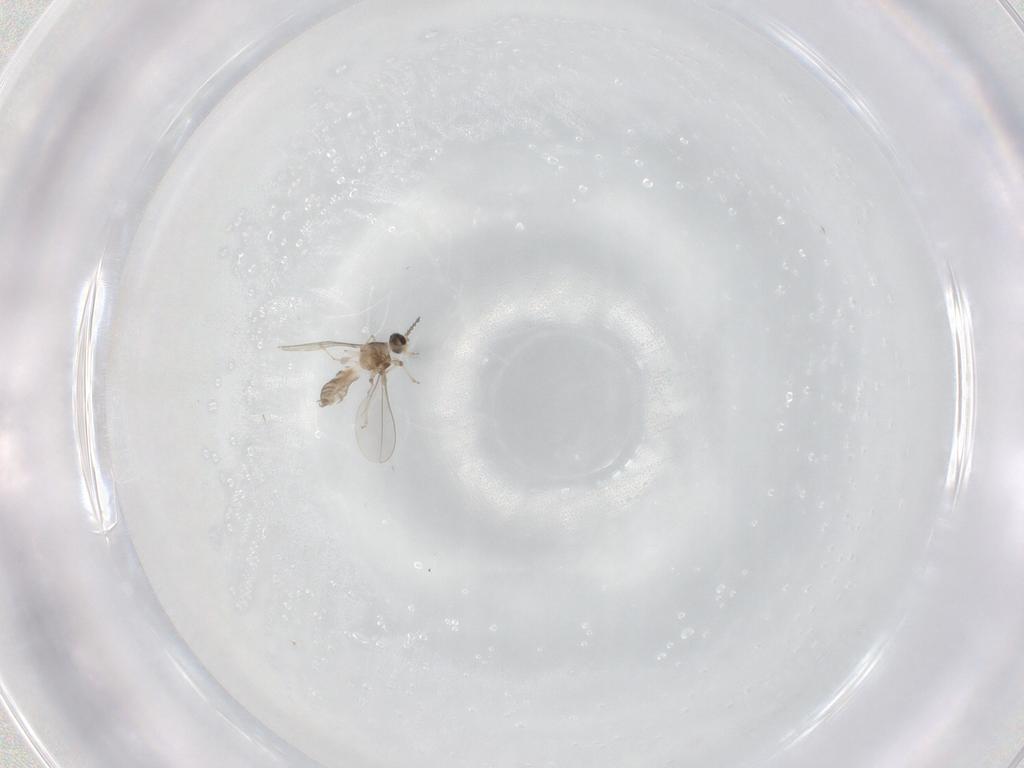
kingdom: Animalia
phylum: Arthropoda
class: Insecta
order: Diptera
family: Cecidomyiidae
